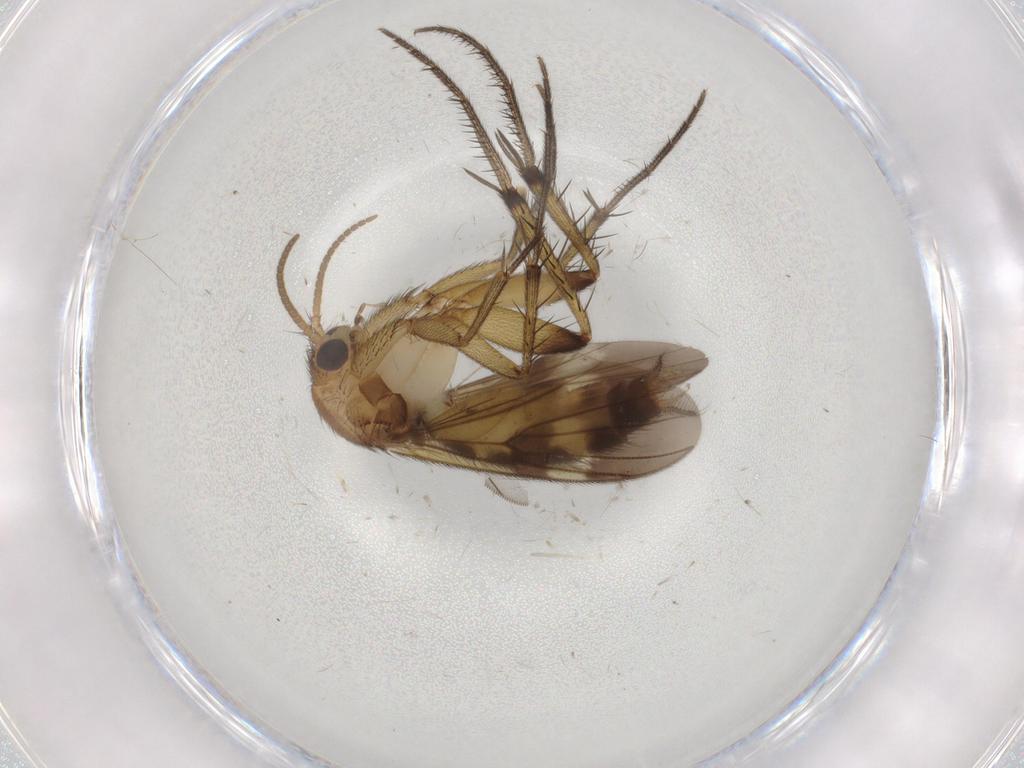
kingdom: Animalia
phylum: Arthropoda
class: Insecta
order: Diptera
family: Mycetophilidae
